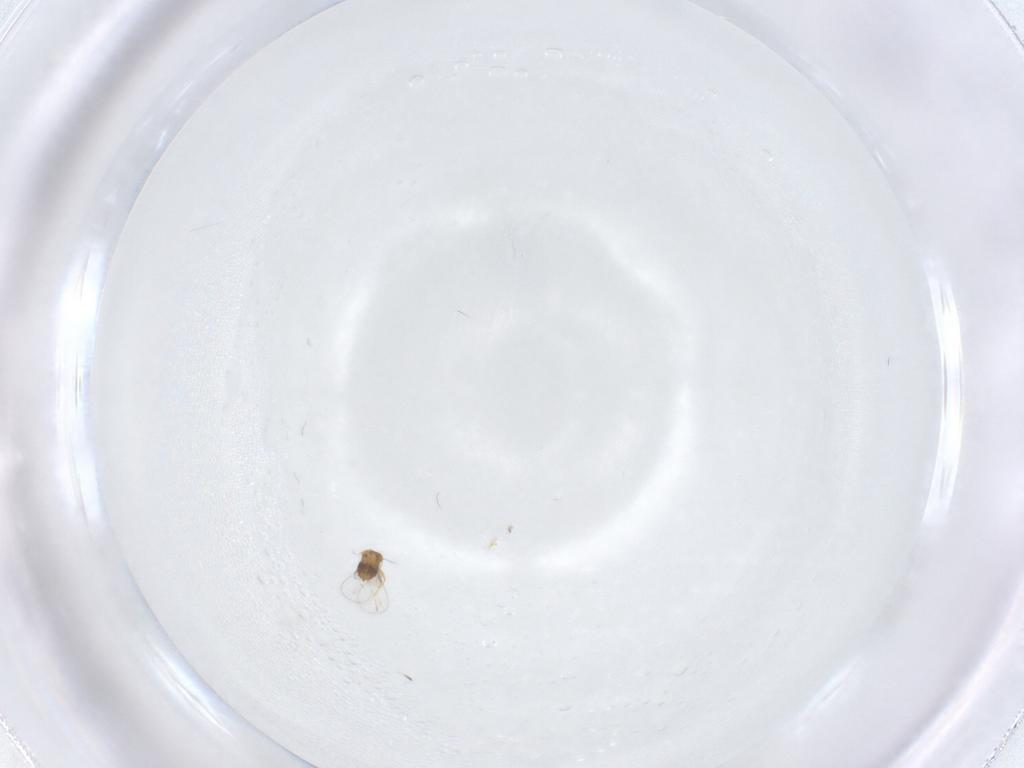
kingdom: Animalia
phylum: Arthropoda
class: Insecta
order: Hymenoptera
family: Trichogrammatidae
